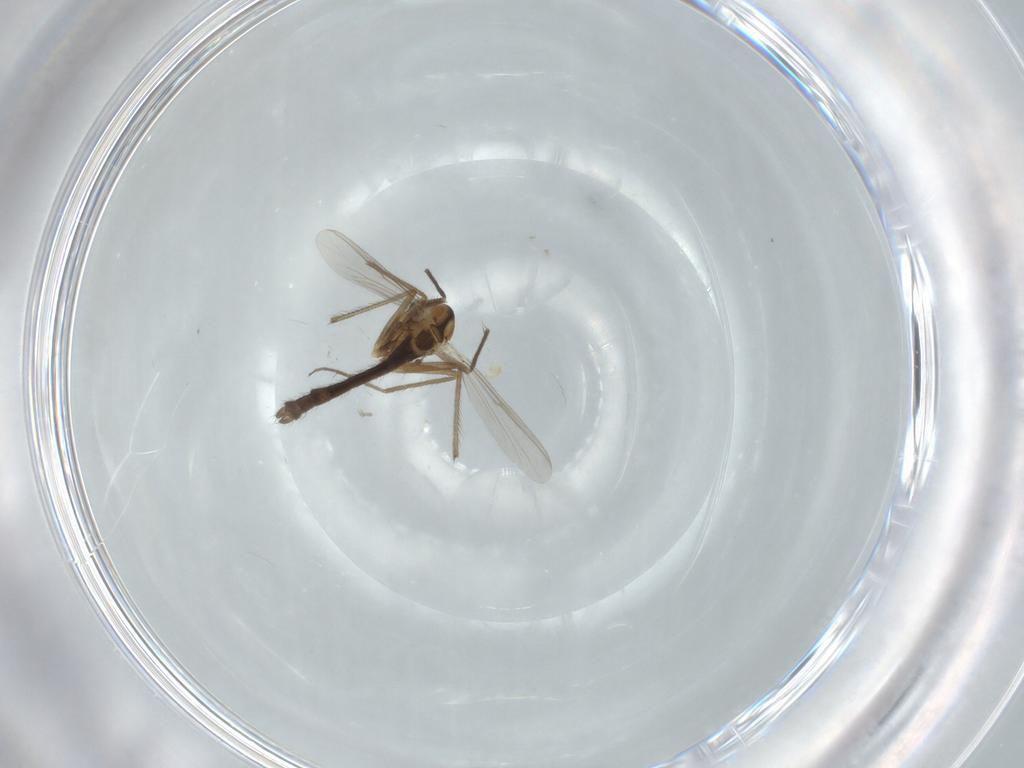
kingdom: Animalia
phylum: Arthropoda
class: Insecta
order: Diptera
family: Chironomidae
